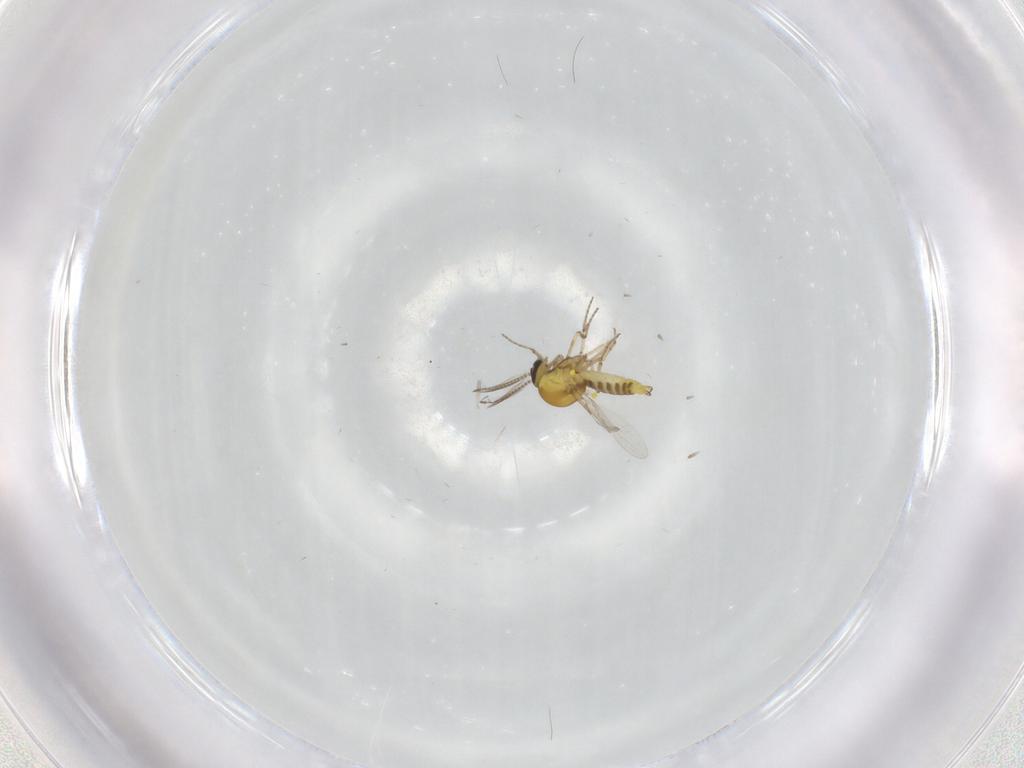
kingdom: Animalia
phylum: Arthropoda
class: Insecta
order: Diptera
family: Ceratopogonidae
